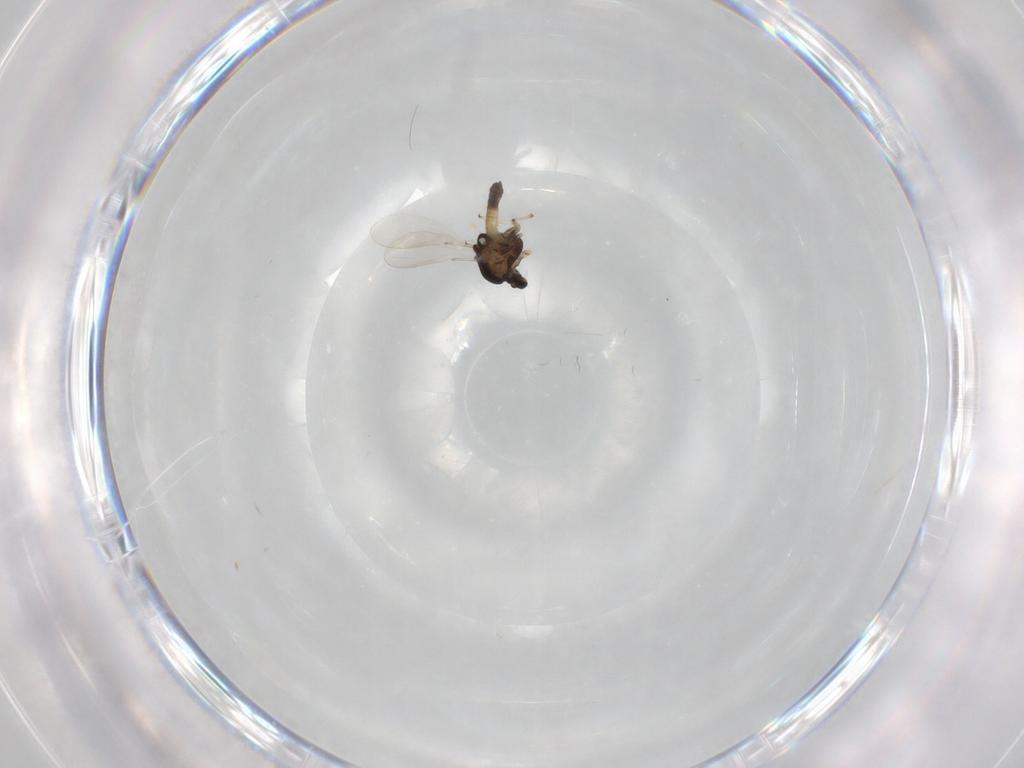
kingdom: Animalia
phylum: Arthropoda
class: Insecta
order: Diptera
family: Chironomidae
